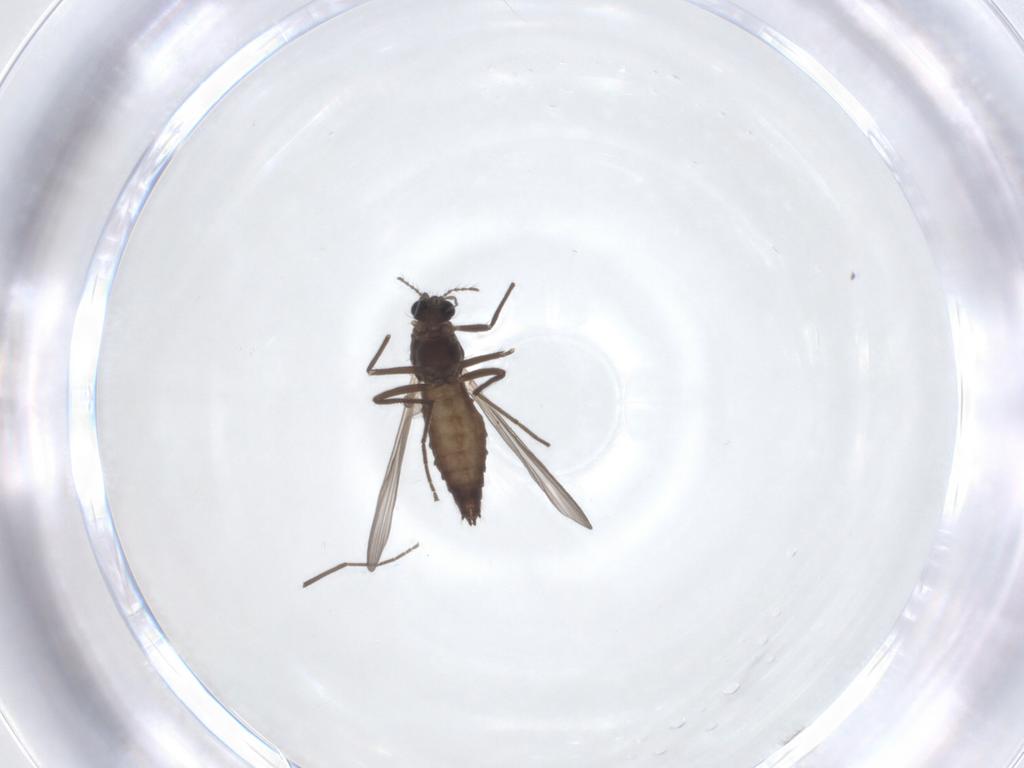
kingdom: Animalia
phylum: Arthropoda
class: Insecta
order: Diptera
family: Chironomidae
